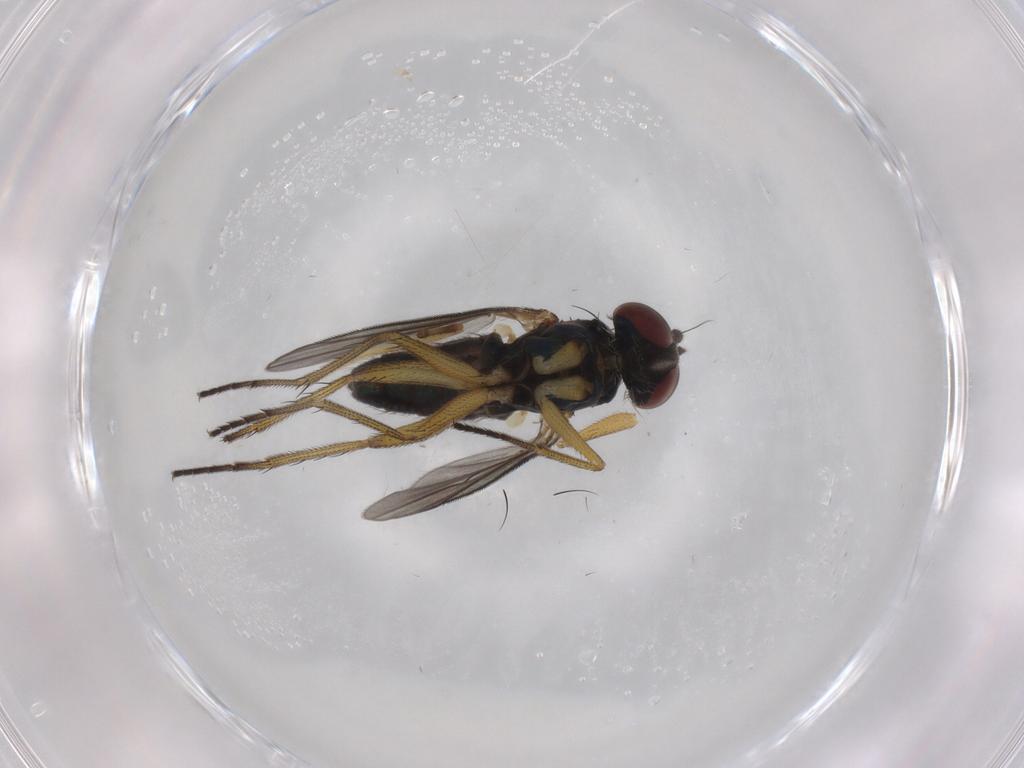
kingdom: Animalia
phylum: Arthropoda
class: Insecta
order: Diptera
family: Dolichopodidae
